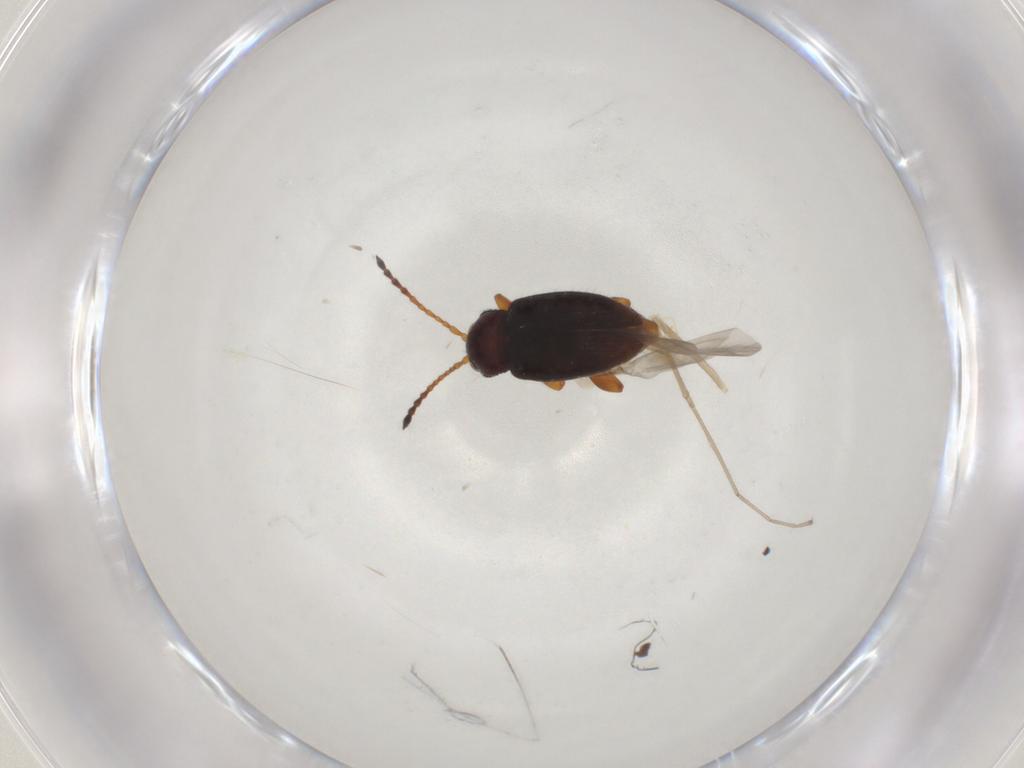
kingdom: Animalia
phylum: Arthropoda
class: Insecta
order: Coleoptera
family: Chrysomelidae
